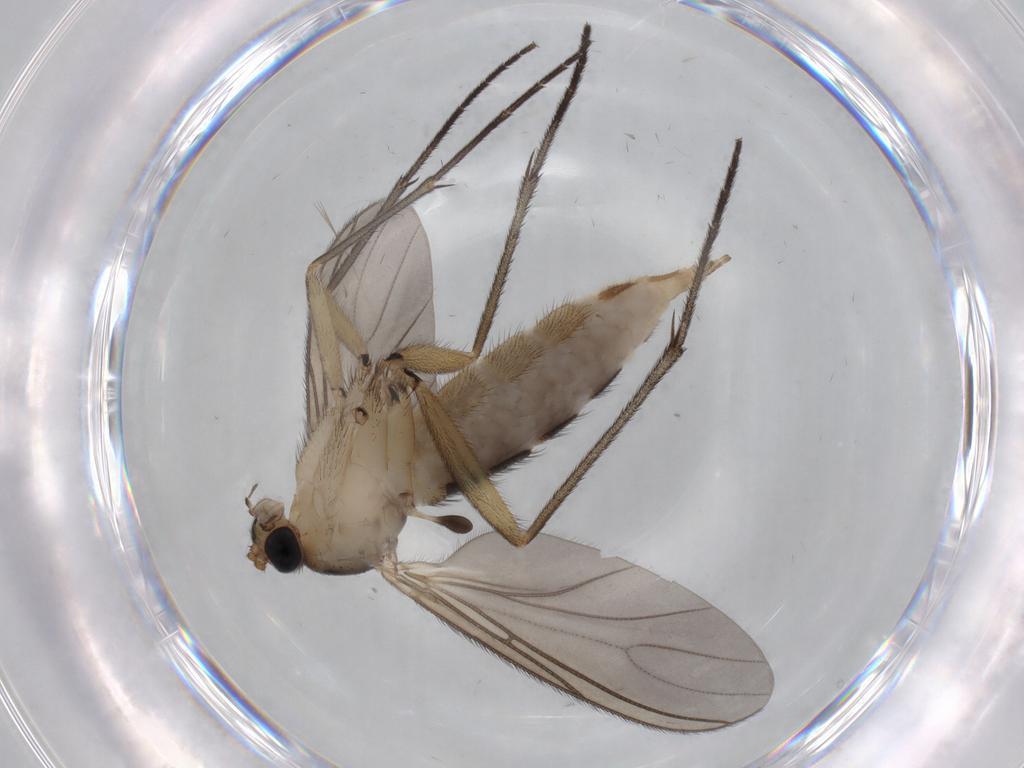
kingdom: Animalia
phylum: Arthropoda
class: Insecta
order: Diptera
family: Sciaridae
